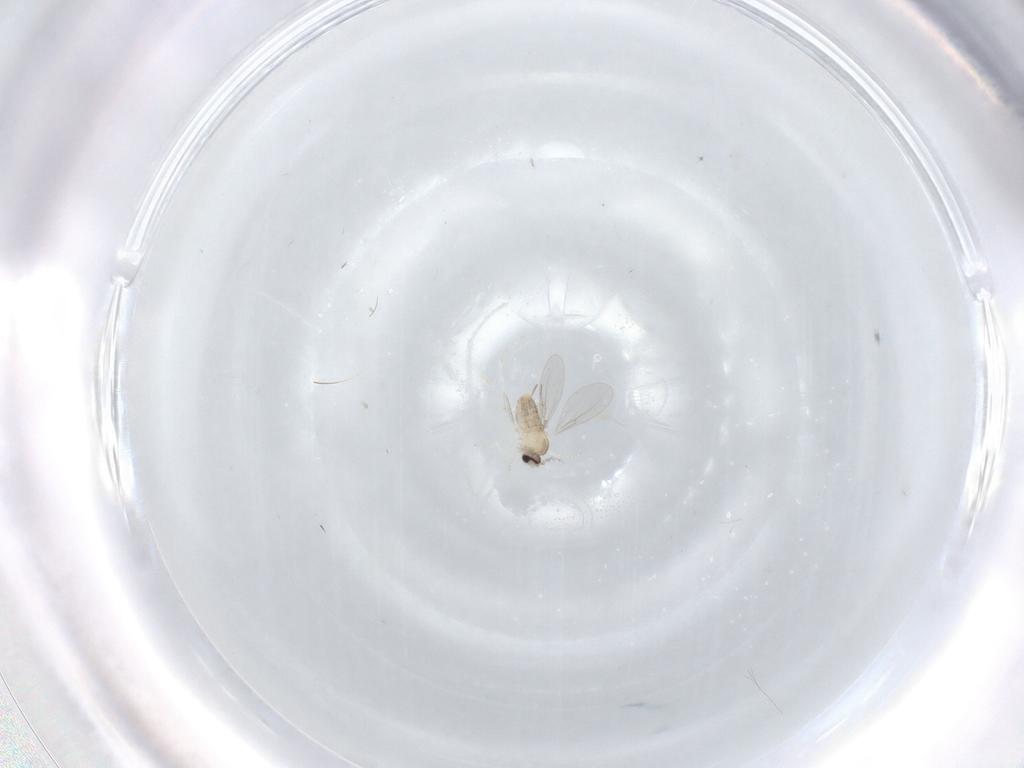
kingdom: Animalia
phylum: Arthropoda
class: Insecta
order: Diptera
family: Cecidomyiidae
